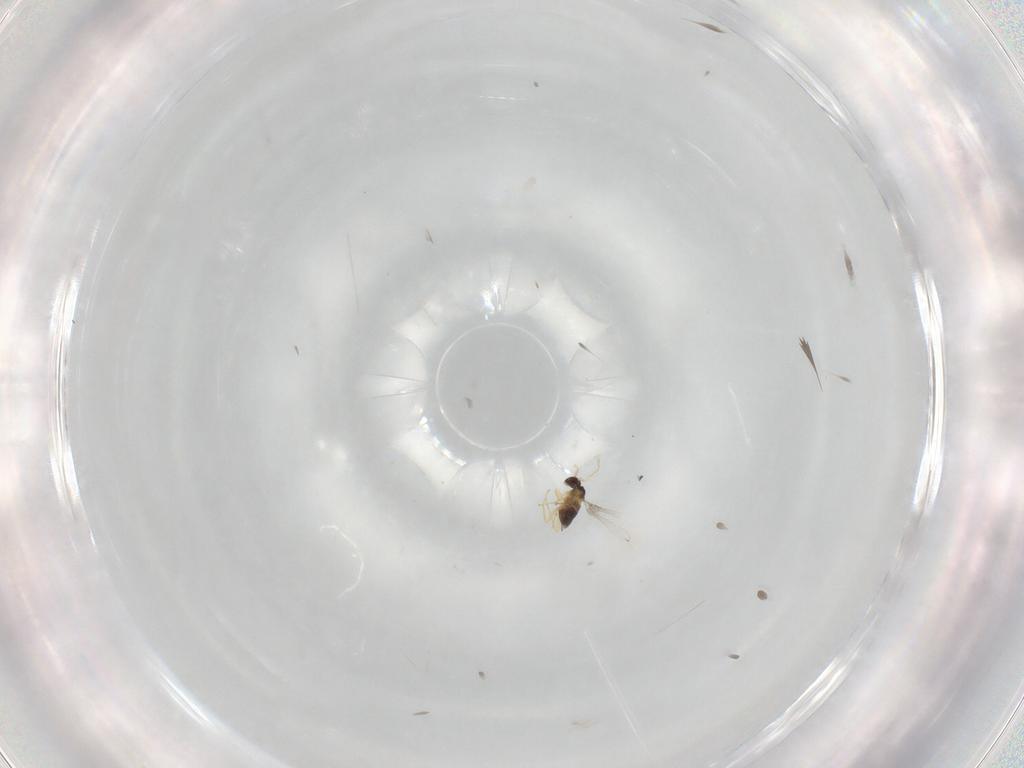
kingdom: Animalia
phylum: Arthropoda
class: Insecta
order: Hymenoptera
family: Mymaridae
